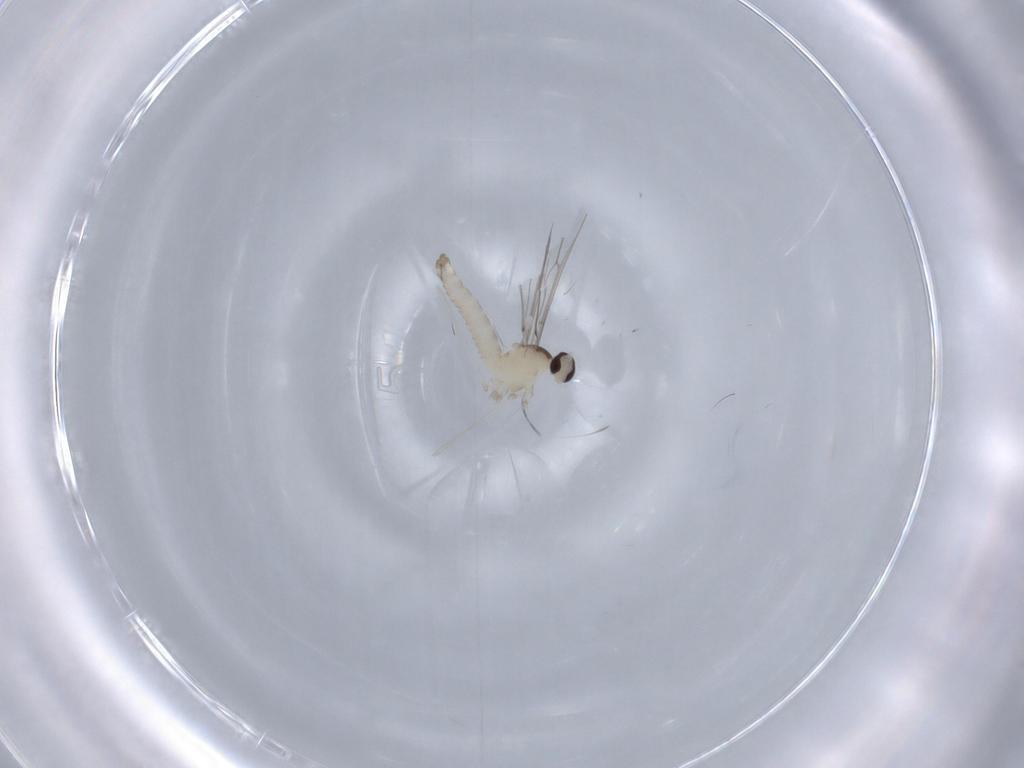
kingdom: Animalia
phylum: Arthropoda
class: Insecta
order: Diptera
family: Cecidomyiidae
